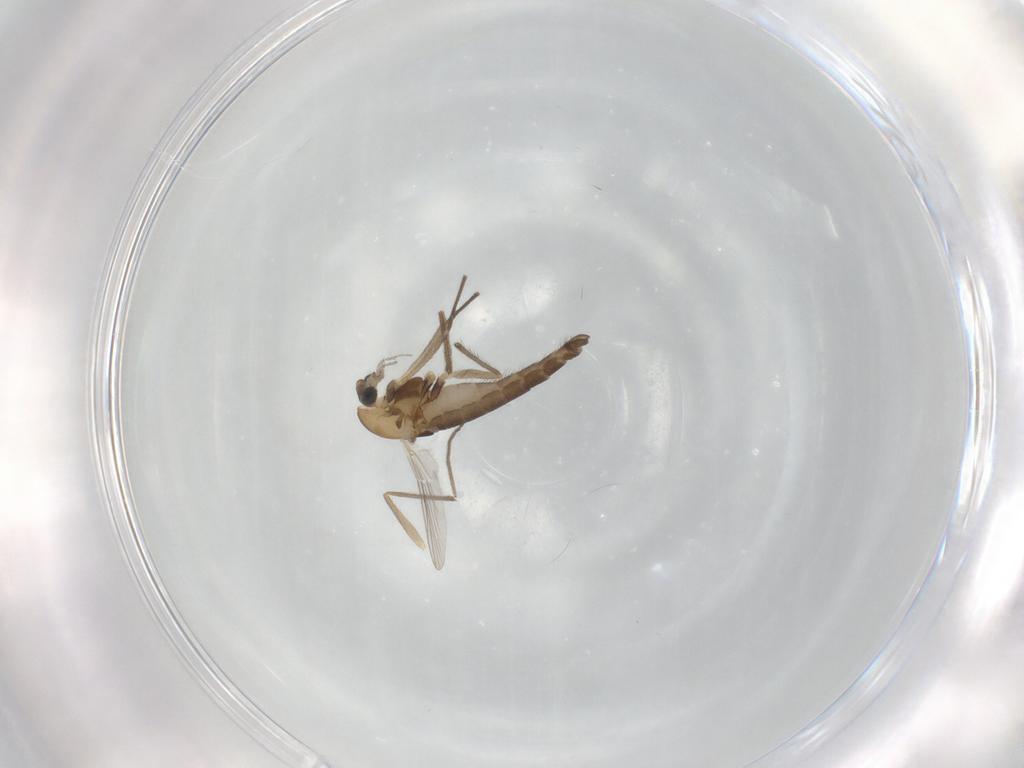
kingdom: Animalia
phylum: Arthropoda
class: Insecta
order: Diptera
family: Chironomidae
